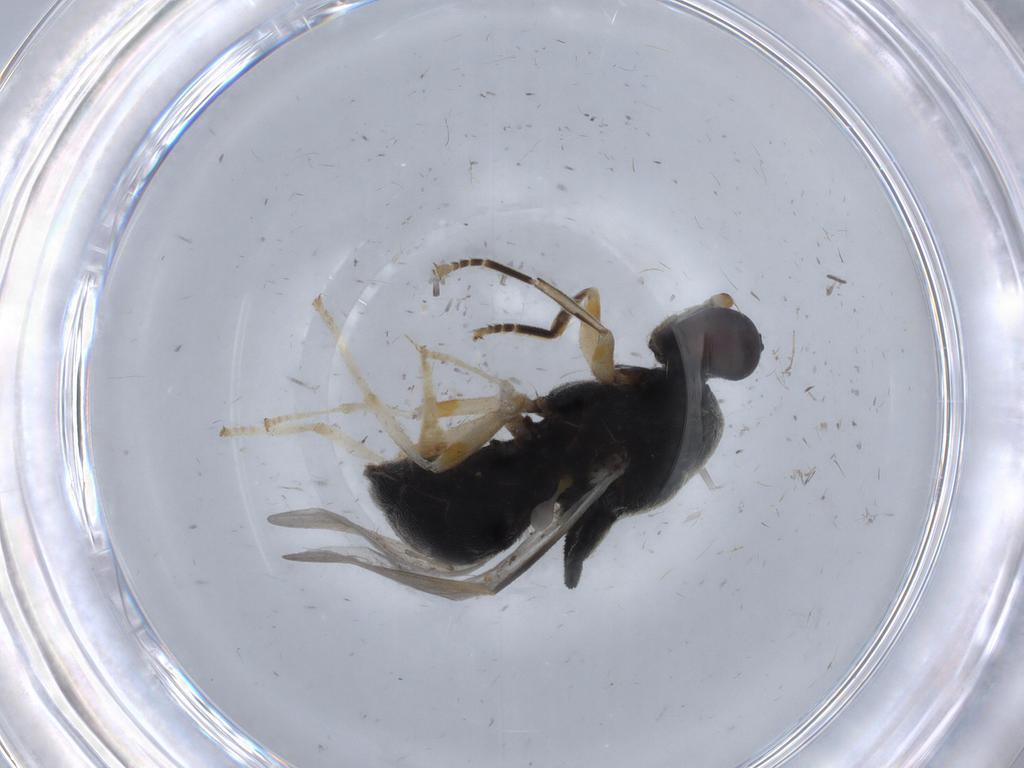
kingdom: Animalia
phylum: Arthropoda
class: Insecta
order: Diptera
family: Stratiomyidae
